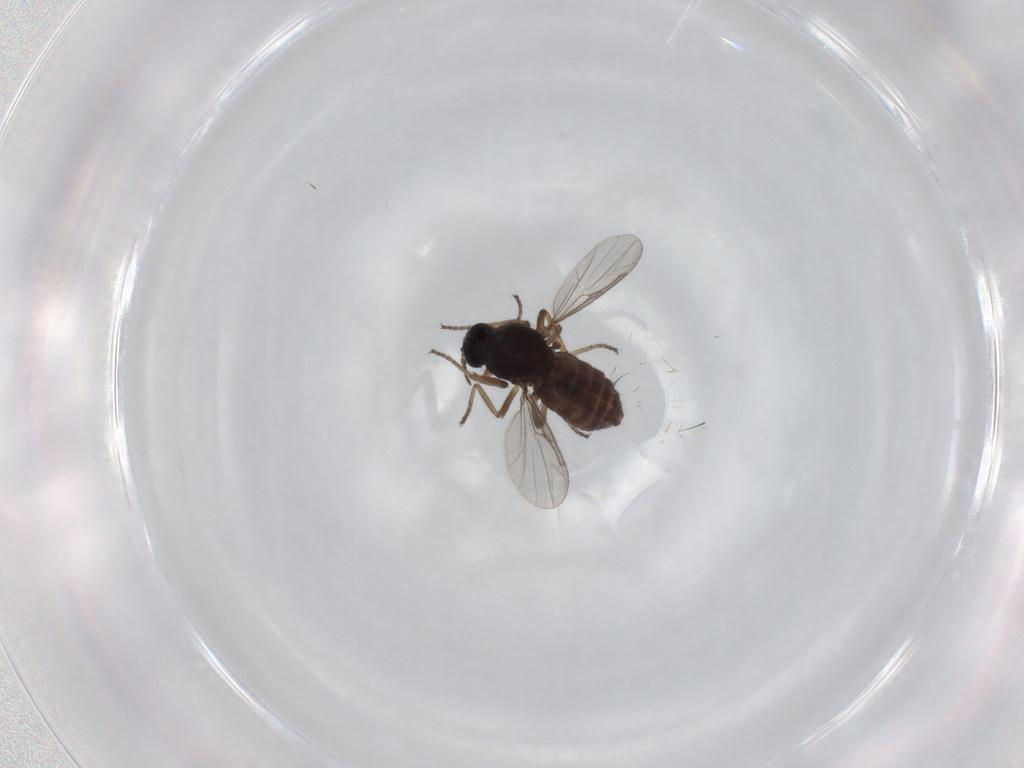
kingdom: Animalia
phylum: Arthropoda
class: Insecta
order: Diptera
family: Ceratopogonidae
